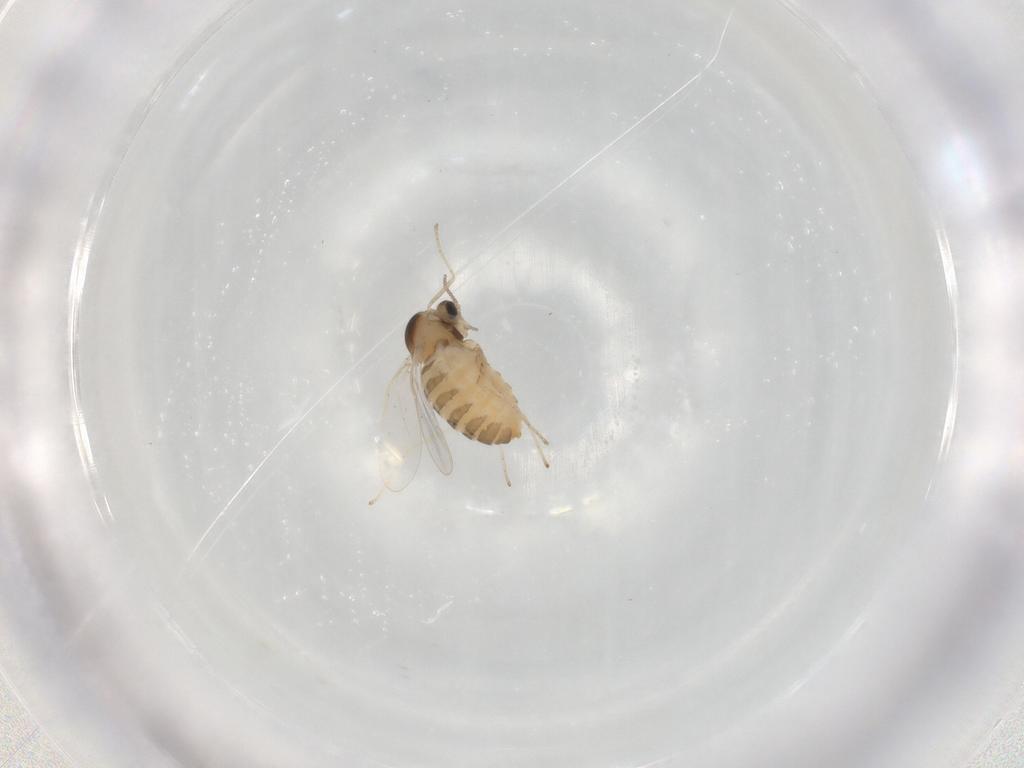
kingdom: Animalia
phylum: Arthropoda
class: Insecta
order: Diptera
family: Cecidomyiidae
